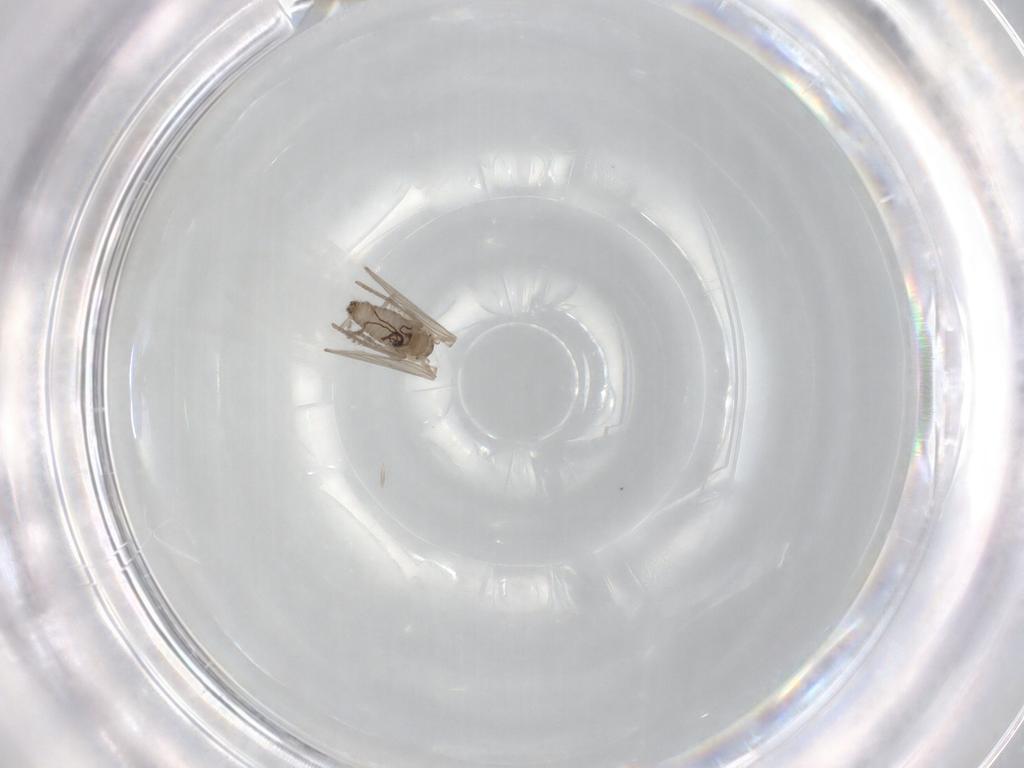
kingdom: Animalia
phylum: Arthropoda
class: Insecta
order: Diptera
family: Psychodidae
